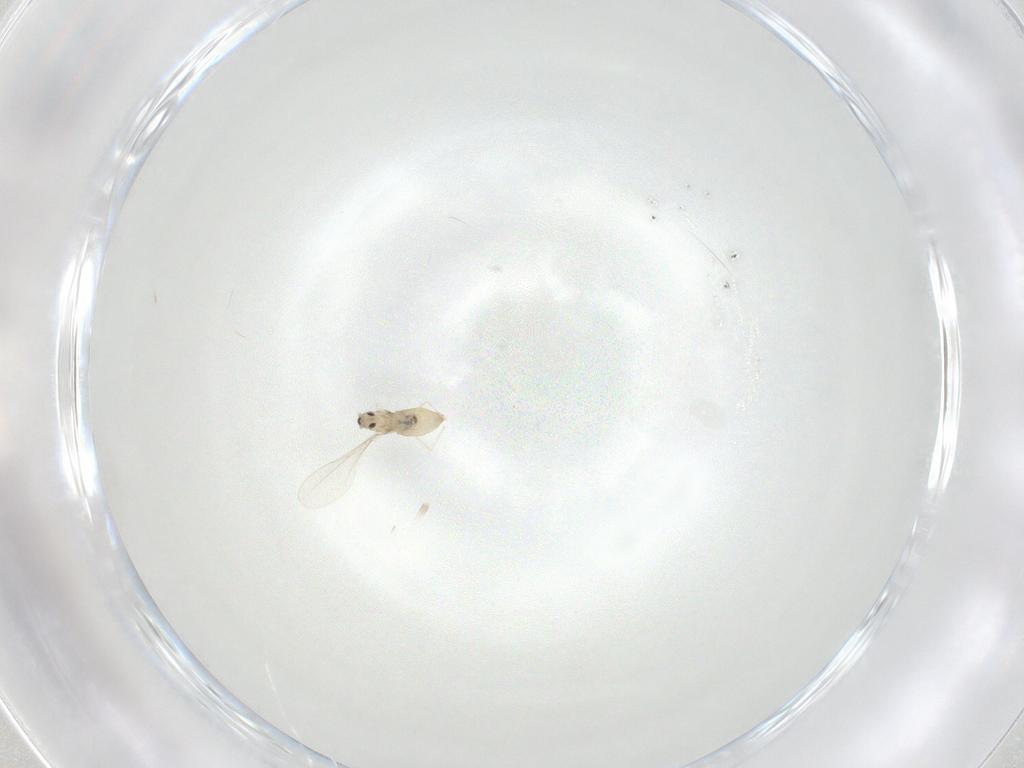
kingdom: Animalia
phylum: Arthropoda
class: Insecta
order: Diptera
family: Cecidomyiidae
